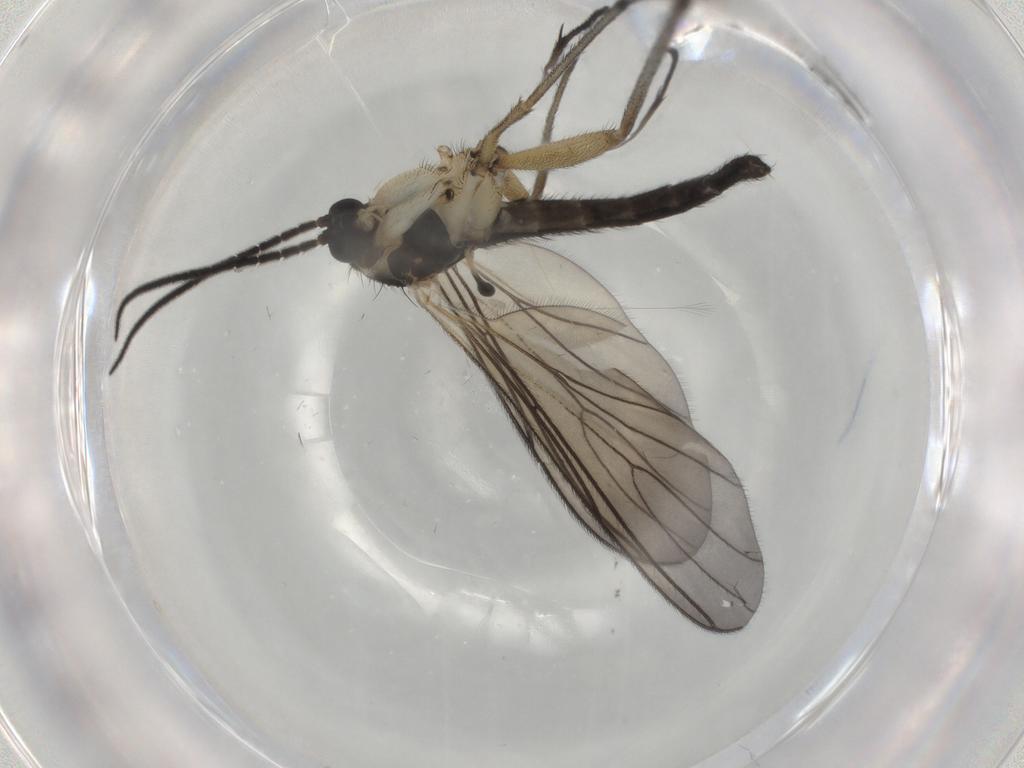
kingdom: Animalia
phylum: Arthropoda
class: Insecta
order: Diptera
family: Sciaridae
